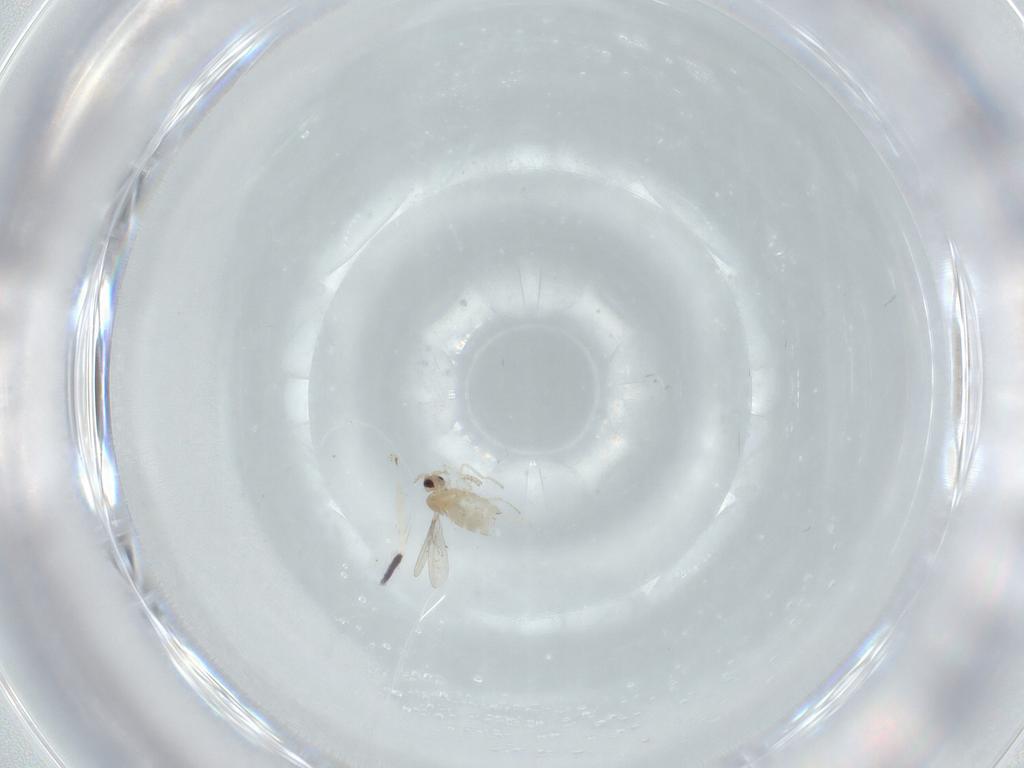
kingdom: Animalia
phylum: Arthropoda
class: Insecta
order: Diptera
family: Cecidomyiidae
